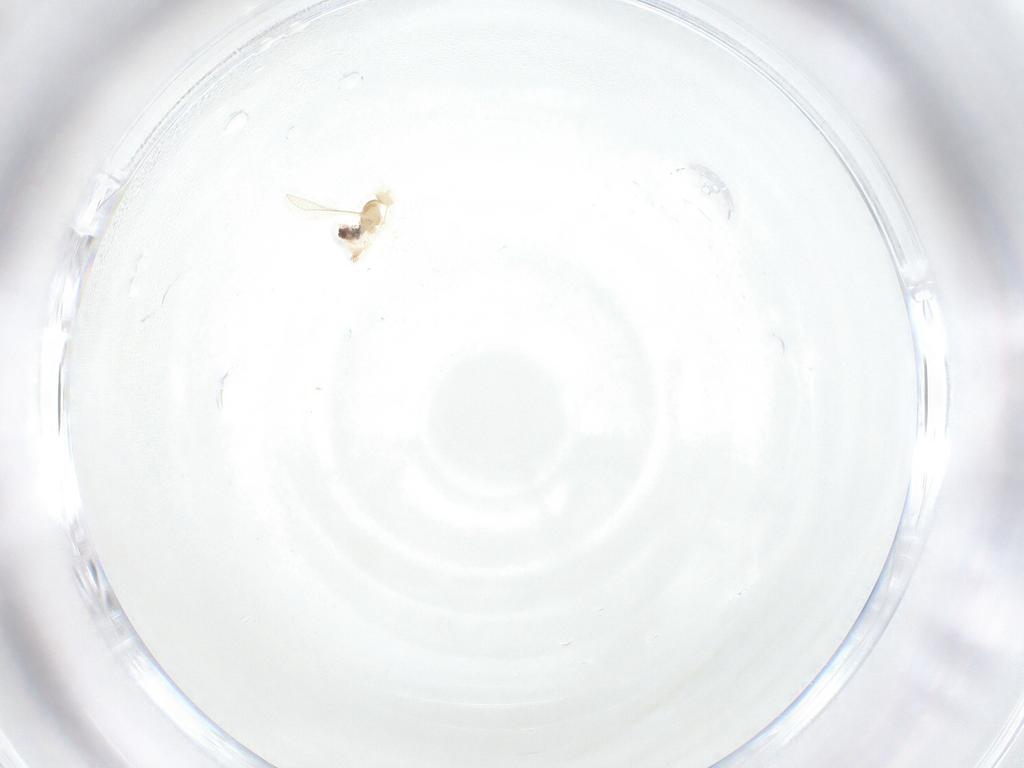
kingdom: Animalia
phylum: Arthropoda
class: Insecta
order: Diptera
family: Cecidomyiidae
